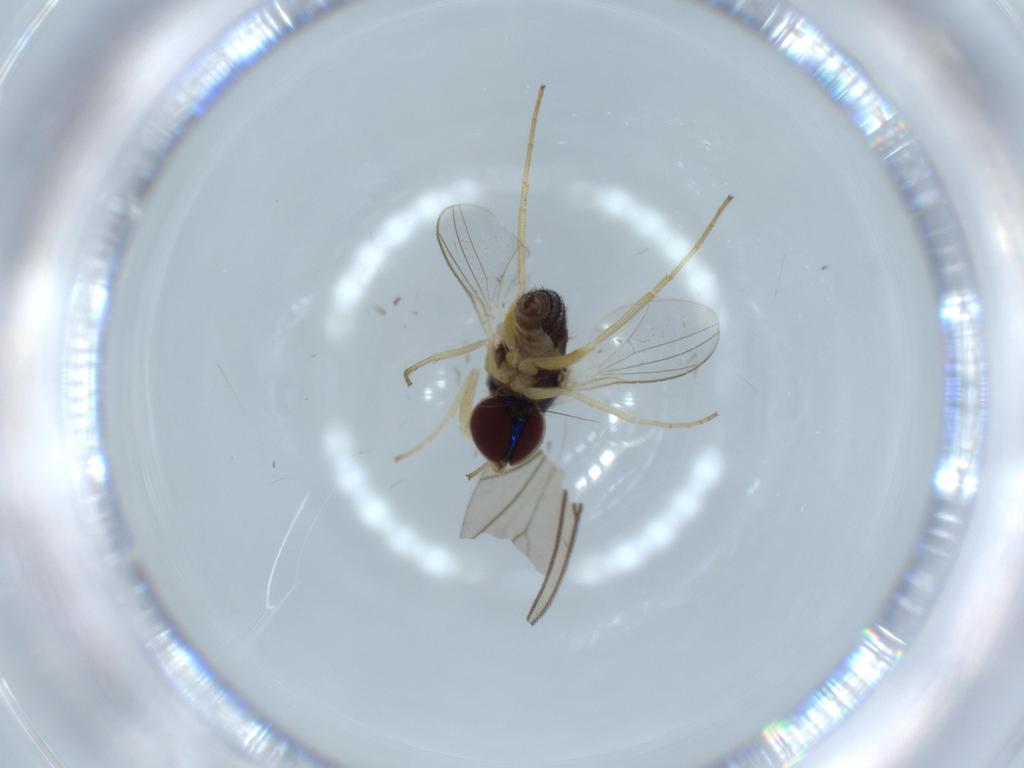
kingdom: Animalia
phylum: Arthropoda
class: Insecta
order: Diptera
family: Dolichopodidae
